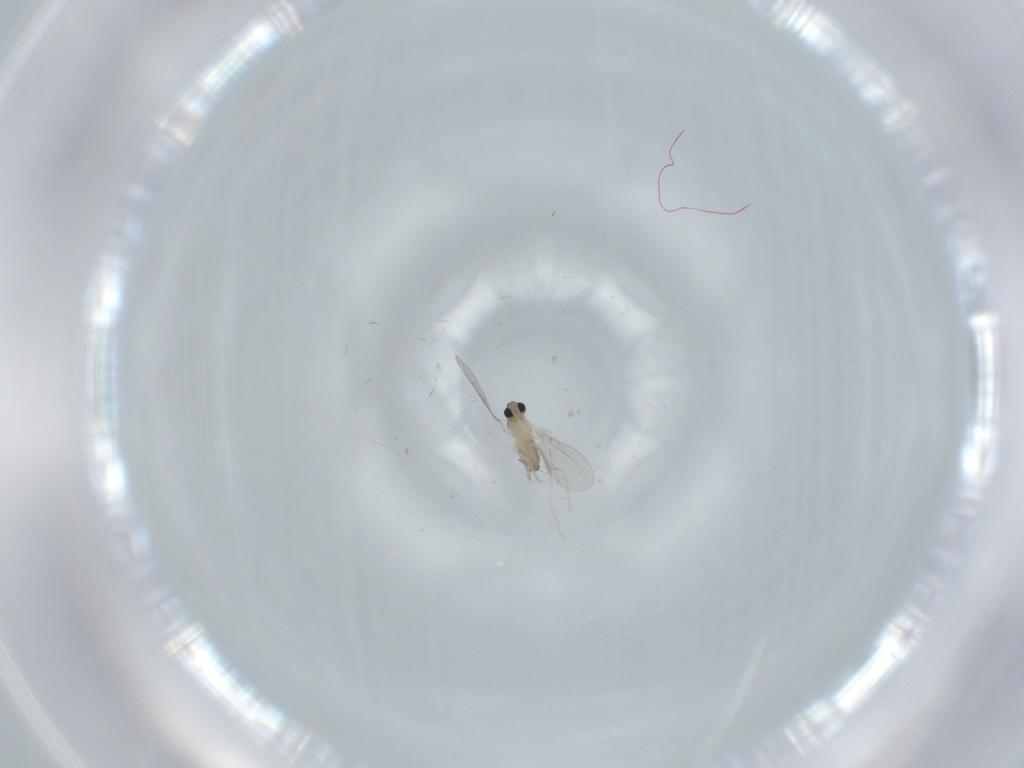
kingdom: Animalia
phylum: Arthropoda
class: Insecta
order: Diptera
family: Cecidomyiidae
